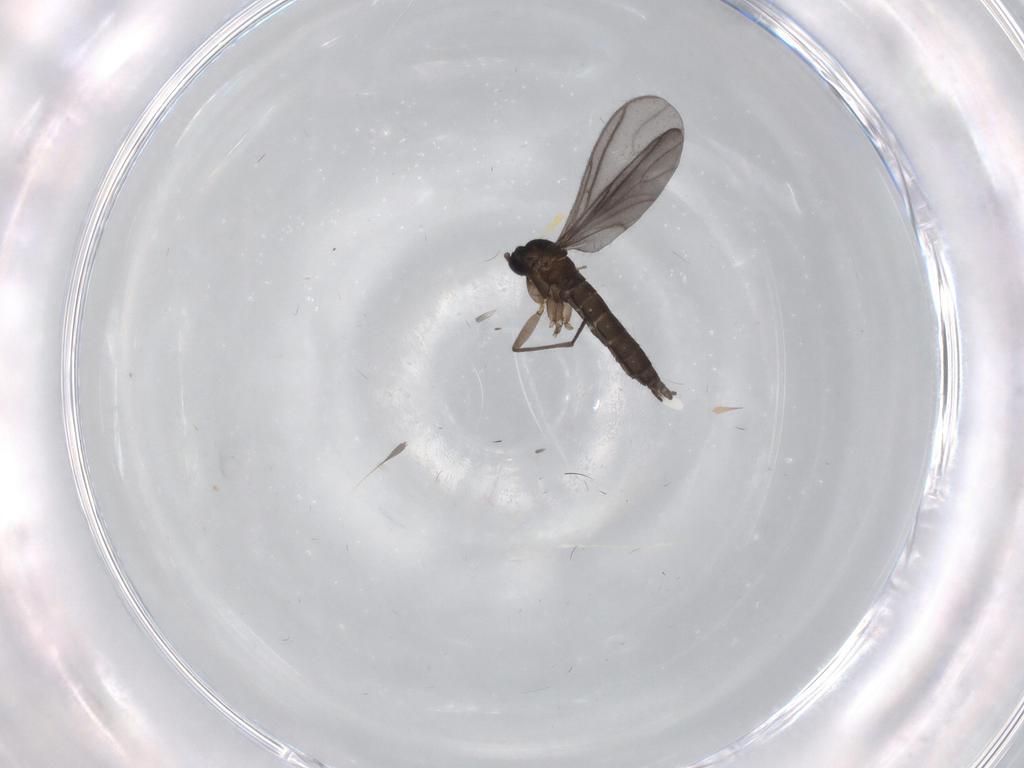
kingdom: Animalia
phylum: Arthropoda
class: Insecta
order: Diptera
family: Sciaridae
